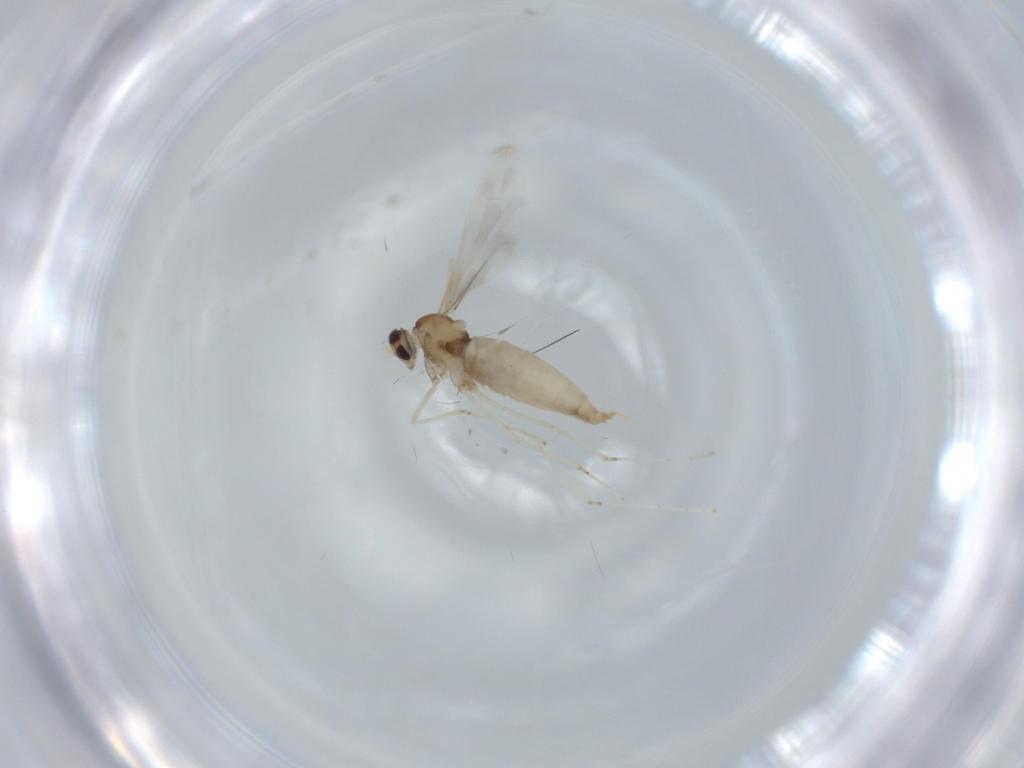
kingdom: Animalia
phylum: Arthropoda
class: Insecta
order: Diptera
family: Cecidomyiidae
